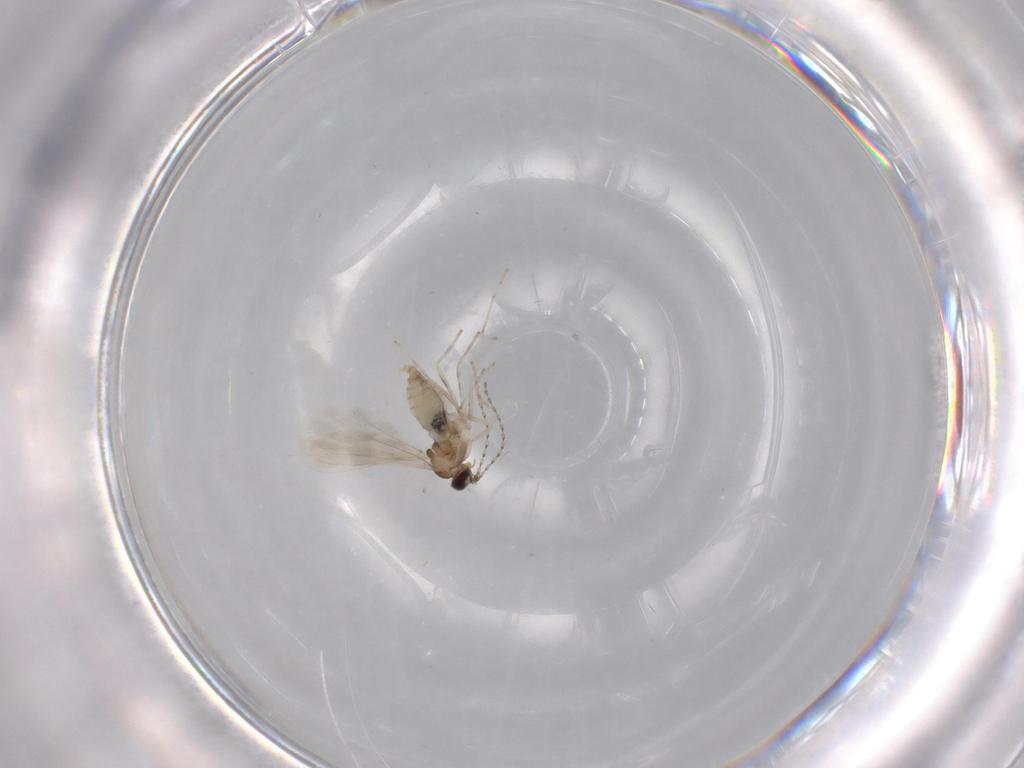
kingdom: Animalia
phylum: Arthropoda
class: Insecta
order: Diptera
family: Cecidomyiidae
